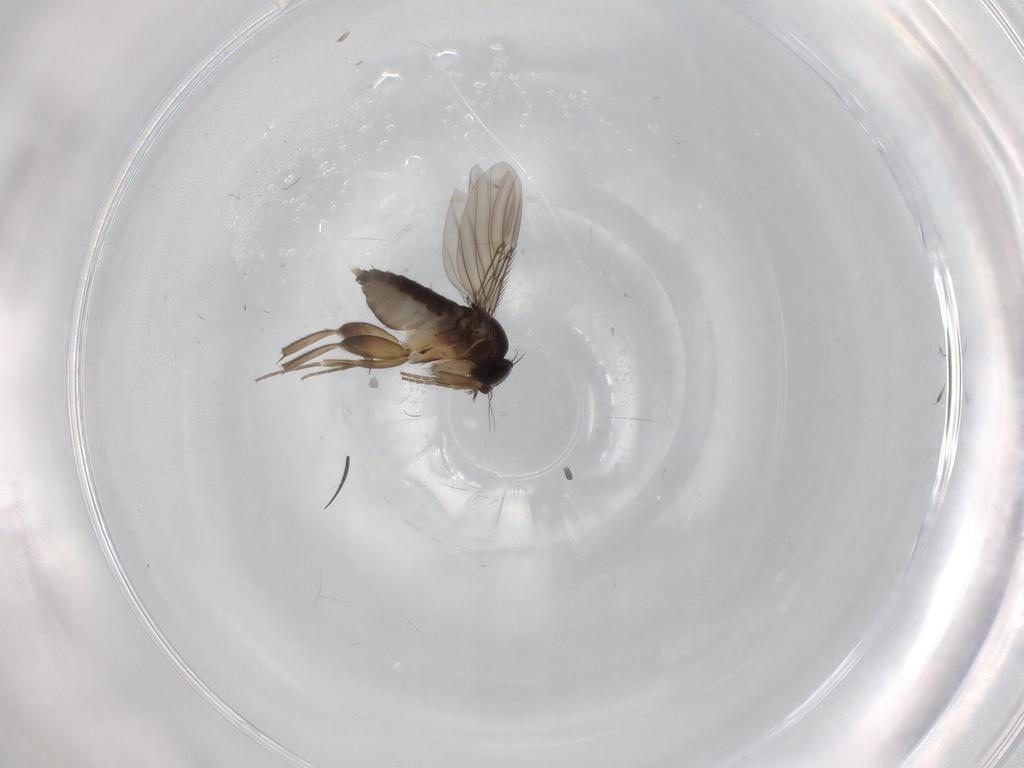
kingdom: Animalia
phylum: Arthropoda
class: Insecta
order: Diptera
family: Phoridae
